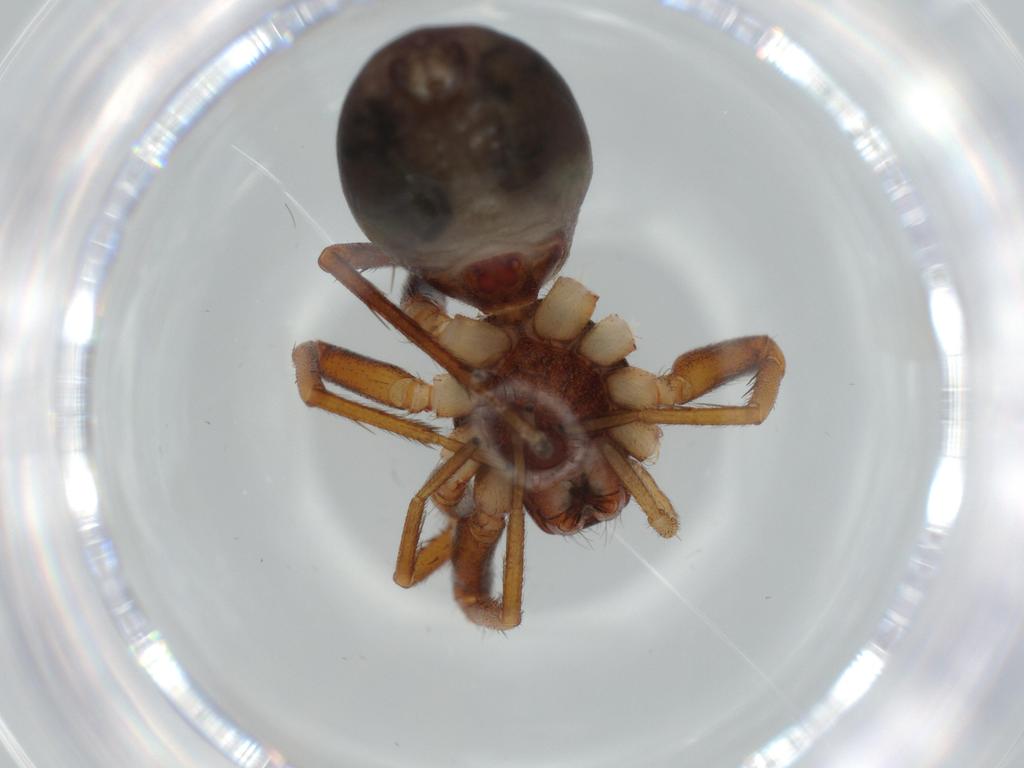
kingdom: Animalia
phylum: Arthropoda
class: Arachnida
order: Araneae
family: Corinnidae
